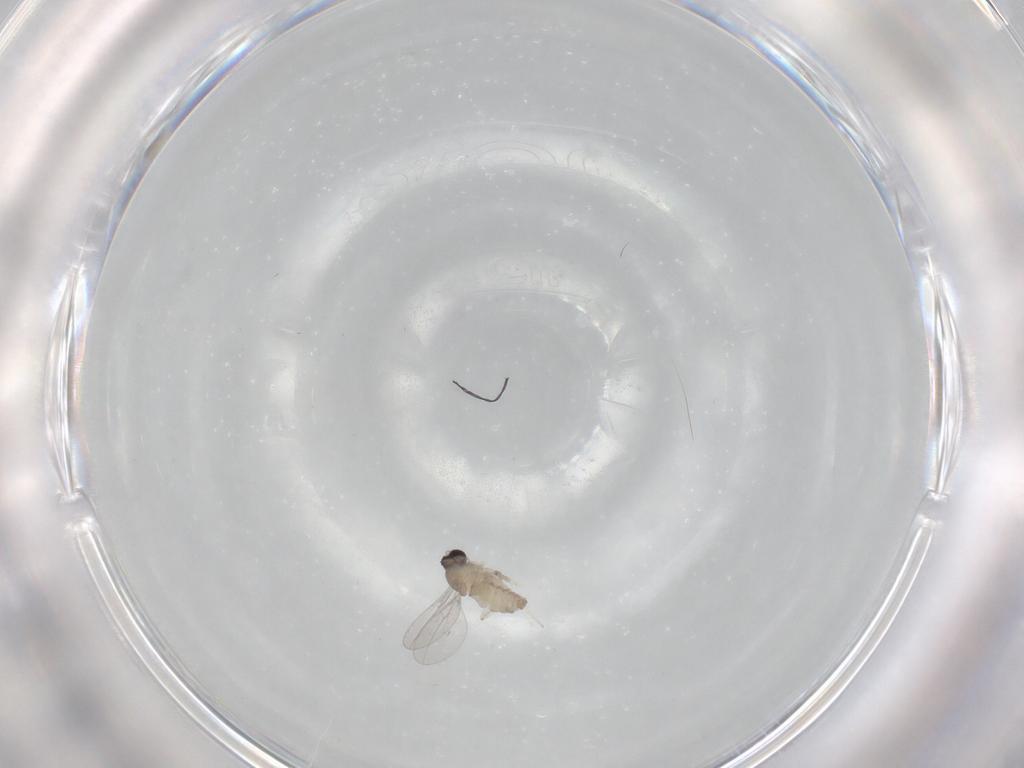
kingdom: Animalia
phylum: Arthropoda
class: Insecta
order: Diptera
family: Cecidomyiidae
